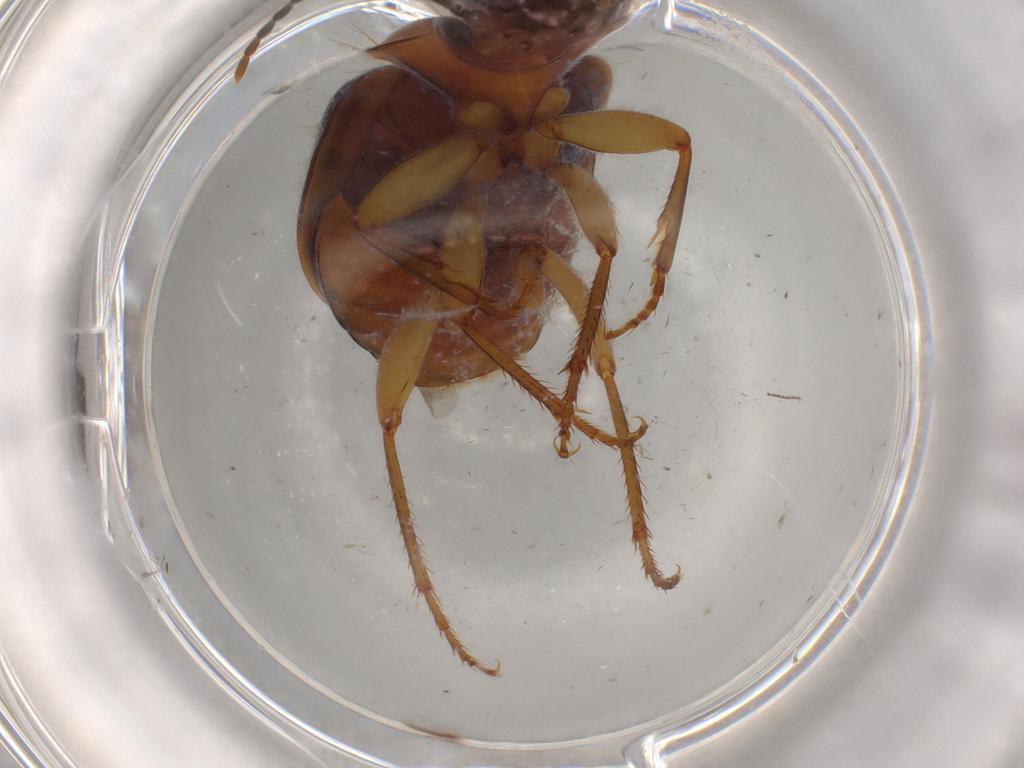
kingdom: Animalia
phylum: Arthropoda
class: Insecta
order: Coleoptera
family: Carabidae
